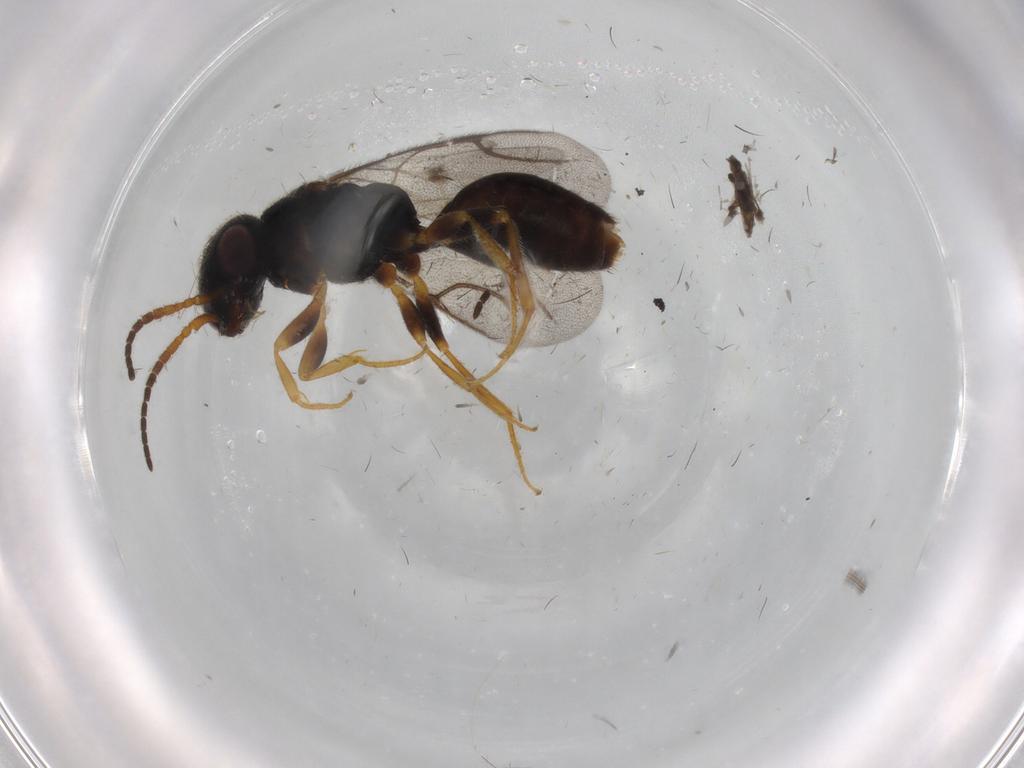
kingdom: Animalia
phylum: Arthropoda
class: Insecta
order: Hymenoptera
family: Bethylidae
